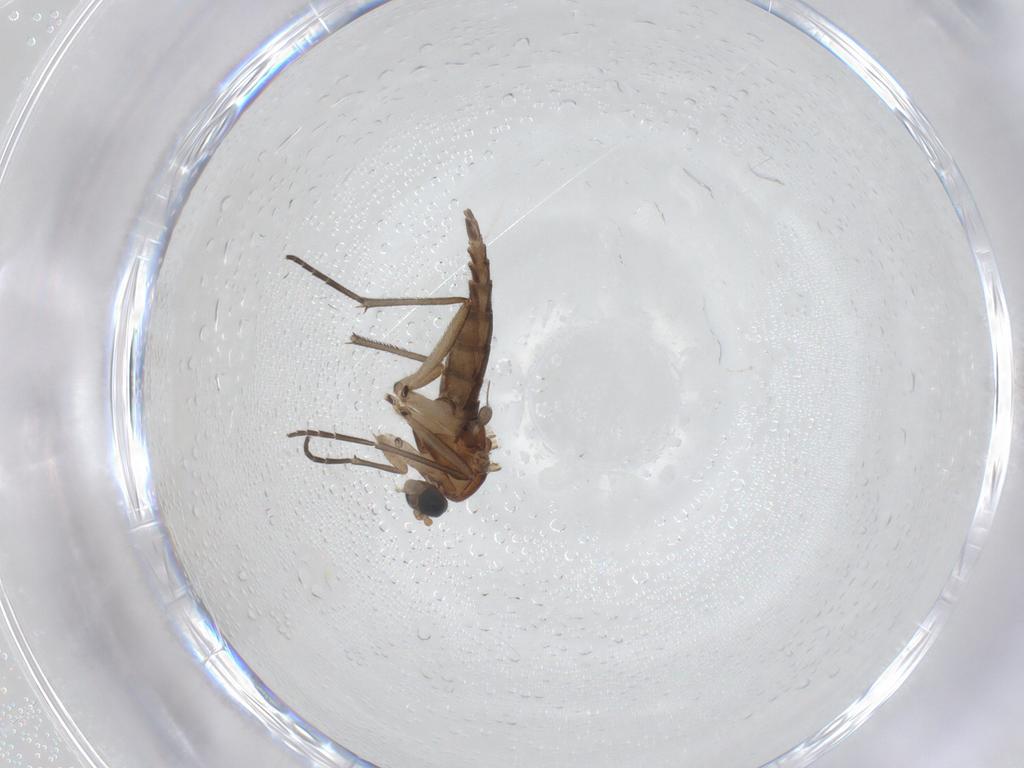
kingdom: Animalia
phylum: Arthropoda
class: Insecta
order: Diptera
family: Sciaridae
